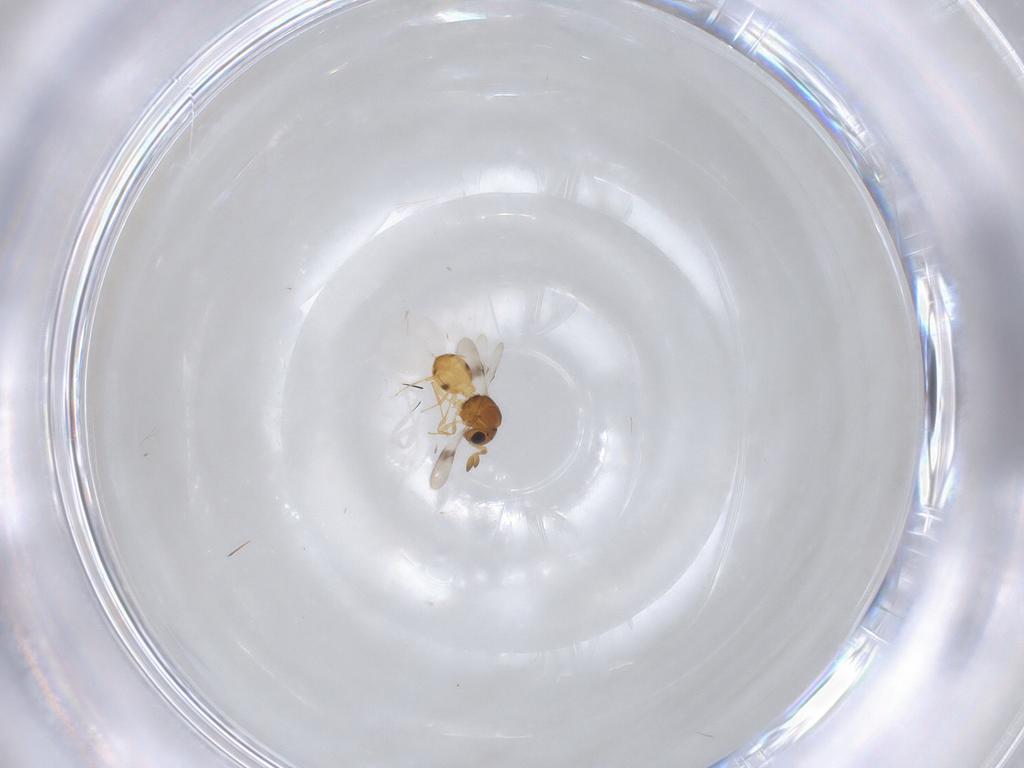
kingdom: Animalia
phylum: Arthropoda
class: Insecta
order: Hymenoptera
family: Scelionidae
